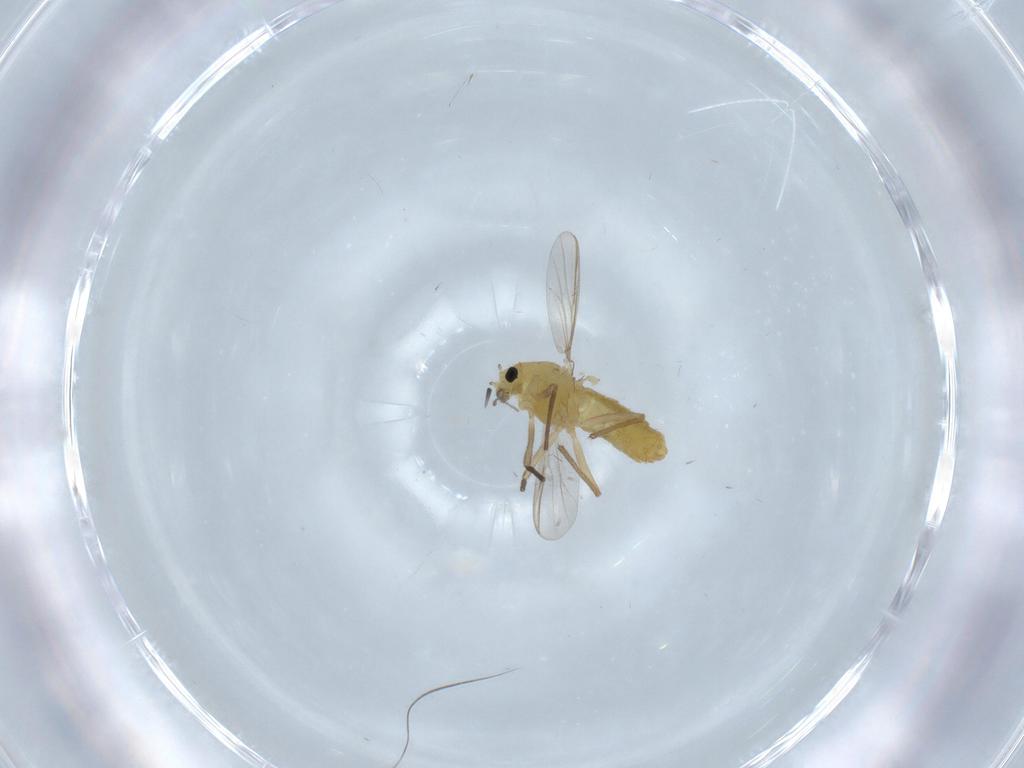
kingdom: Animalia
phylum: Arthropoda
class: Insecta
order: Diptera
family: Chironomidae
